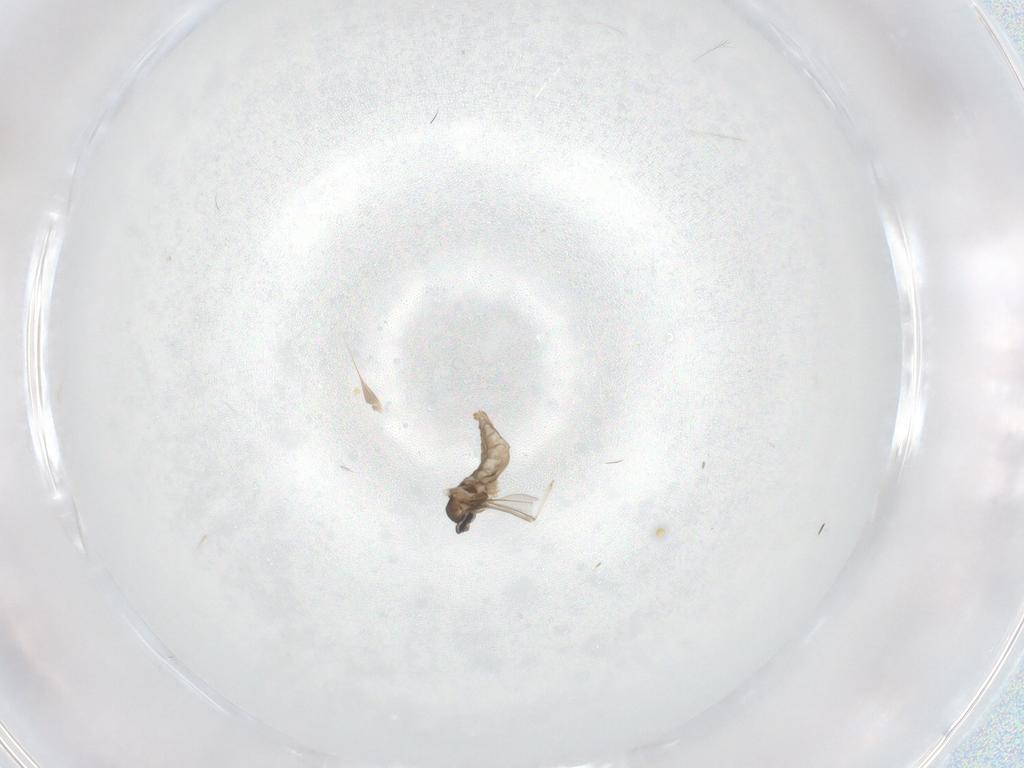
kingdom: Animalia
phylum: Arthropoda
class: Insecta
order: Diptera
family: Cecidomyiidae
